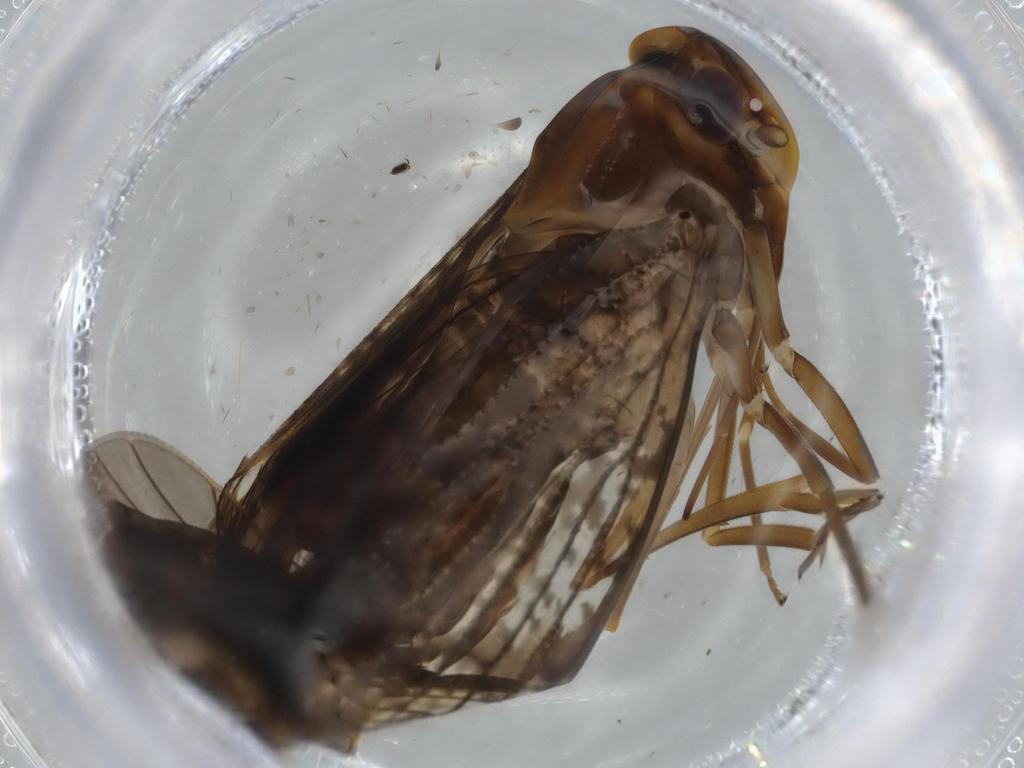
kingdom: Animalia
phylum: Arthropoda
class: Insecta
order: Hemiptera
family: Cixiidae
